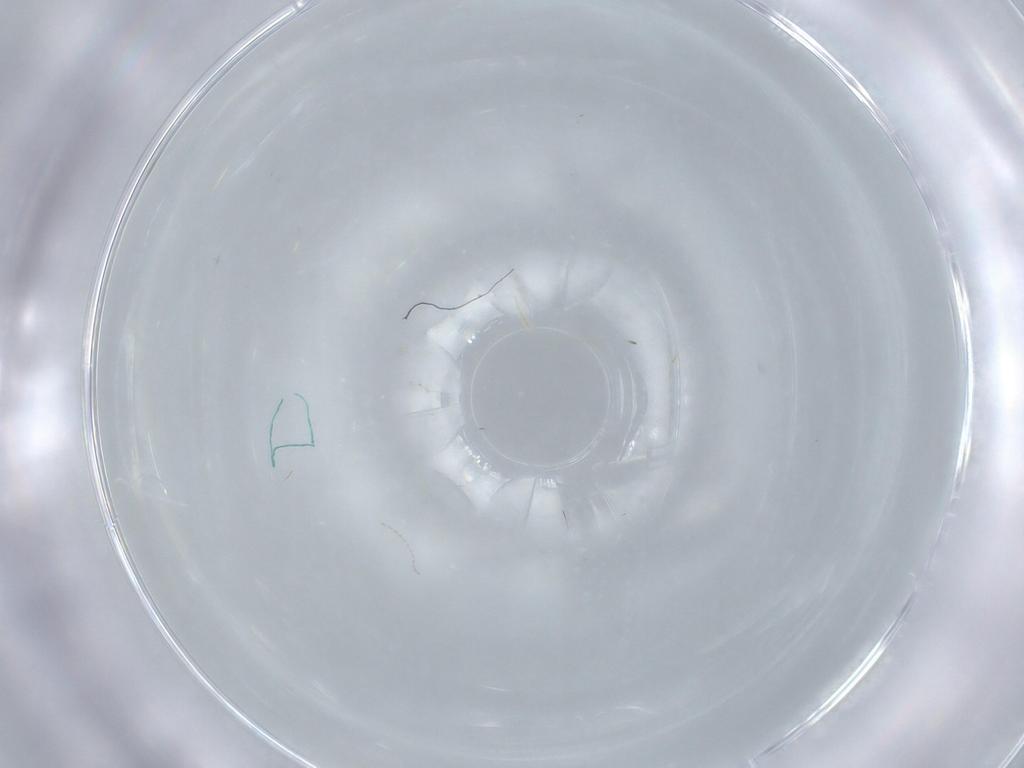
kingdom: Animalia
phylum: Arthropoda
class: Insecta
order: Diptera
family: Limoniidae
